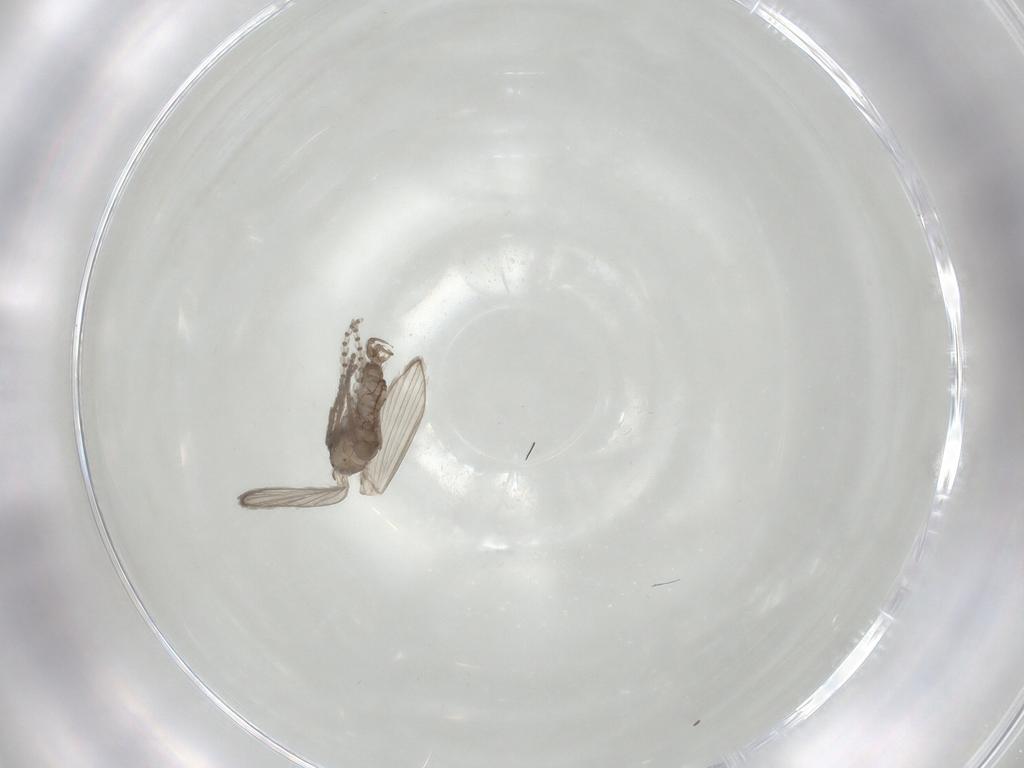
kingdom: Animalia
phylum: Arthropoda
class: Insecta
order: Diptera
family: Psychodidae
